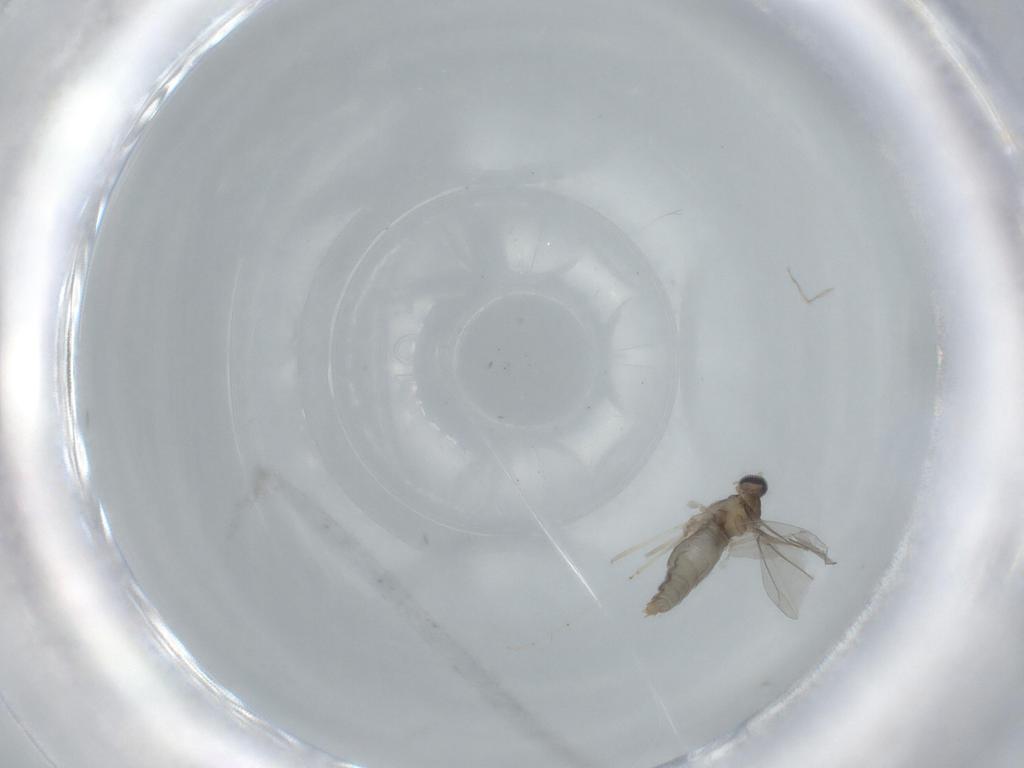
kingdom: Animalia
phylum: Arthropoda
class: Insecta
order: Diptera
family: Cecidomyiidae
